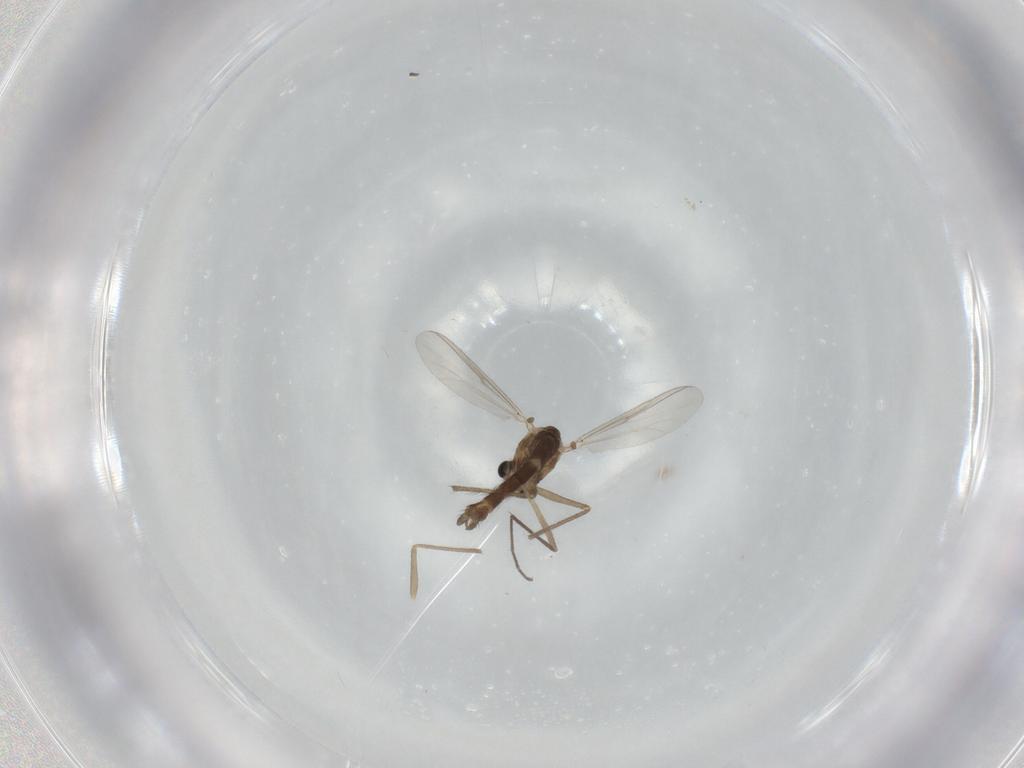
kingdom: Animalia
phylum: Arthropoda
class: Insecta
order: Diptera
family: Chironomidae
